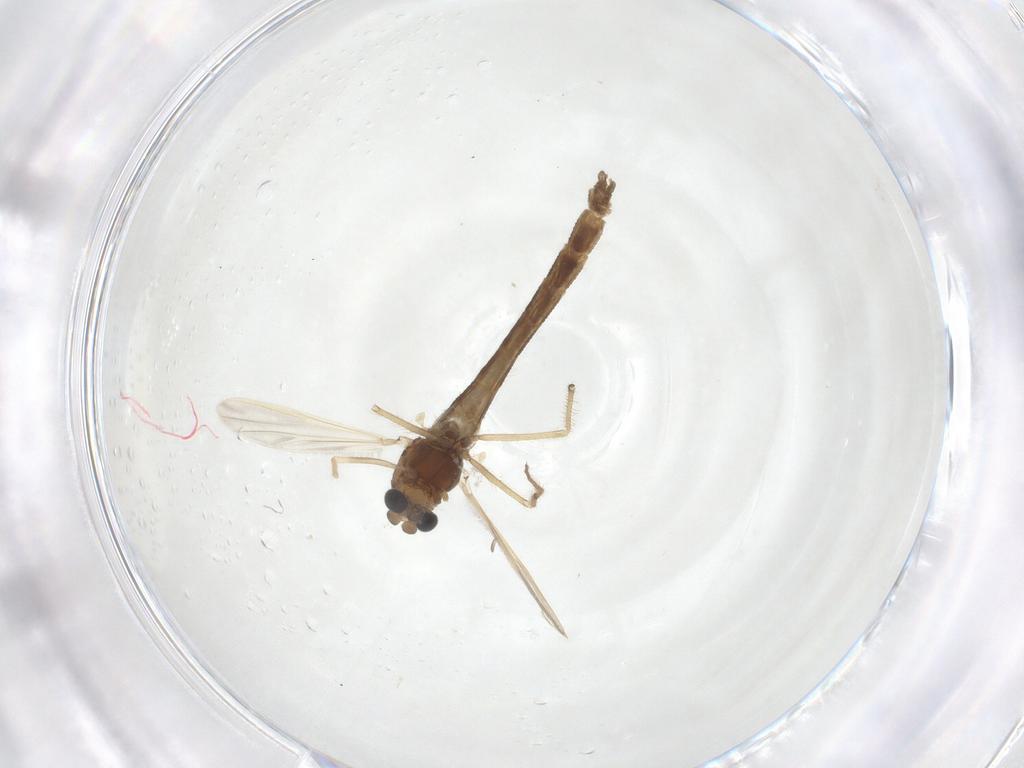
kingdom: Animalia
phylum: Arthropoda
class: Insecta
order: Diptera
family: Chironomidae
